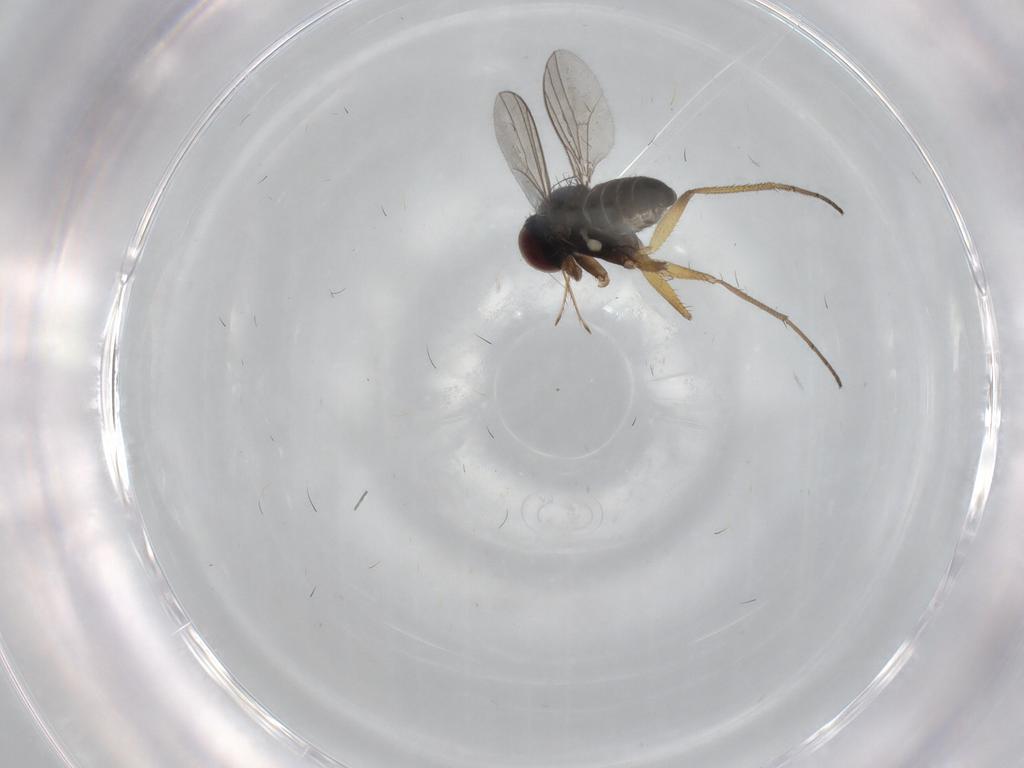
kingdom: Animalia
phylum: Arthropoda
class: Insecta
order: Diptera
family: Dolichopodidae
